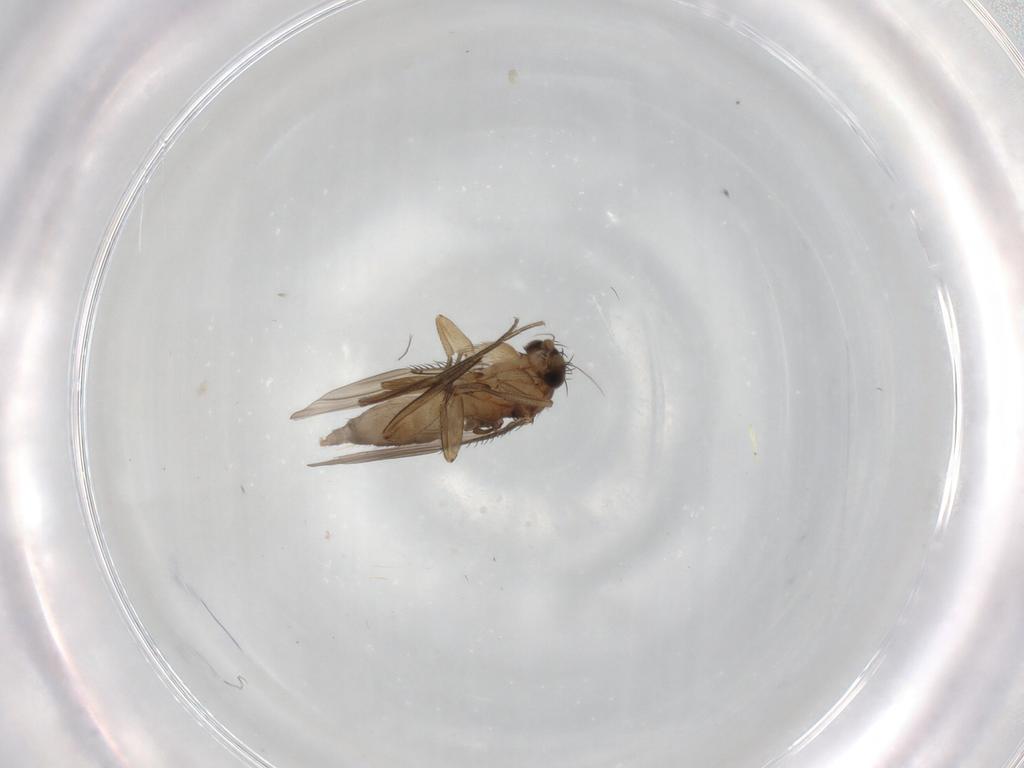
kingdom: Animalia
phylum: Arthropoda
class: Insecta
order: Diptera
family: Phoridae
